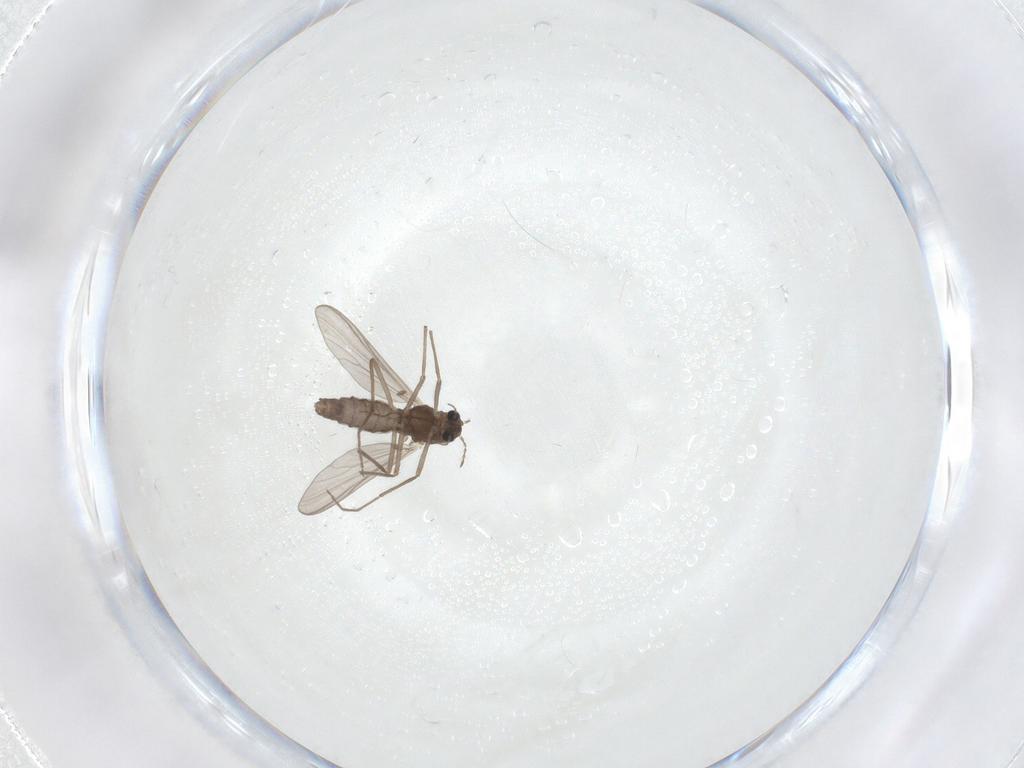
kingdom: Animalia
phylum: Arthropoda
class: Insecta
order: Diptera
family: Chironomidae
